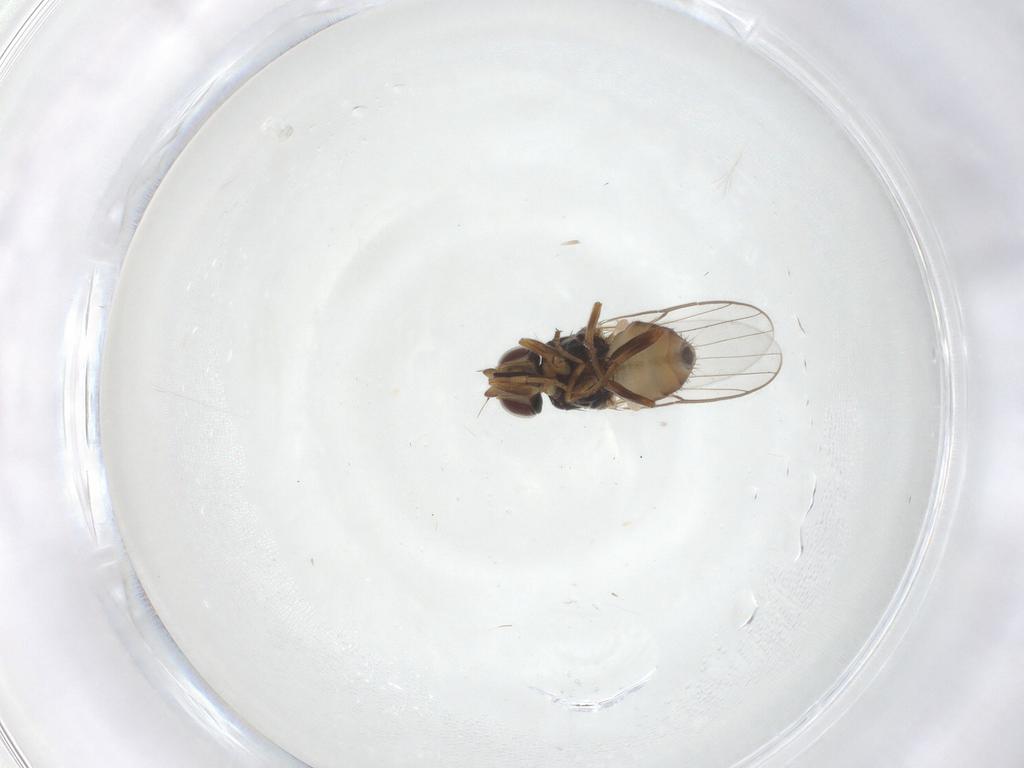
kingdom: Animalia
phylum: Arthropoda
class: Insecta
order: Diptera
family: Chloropidae
